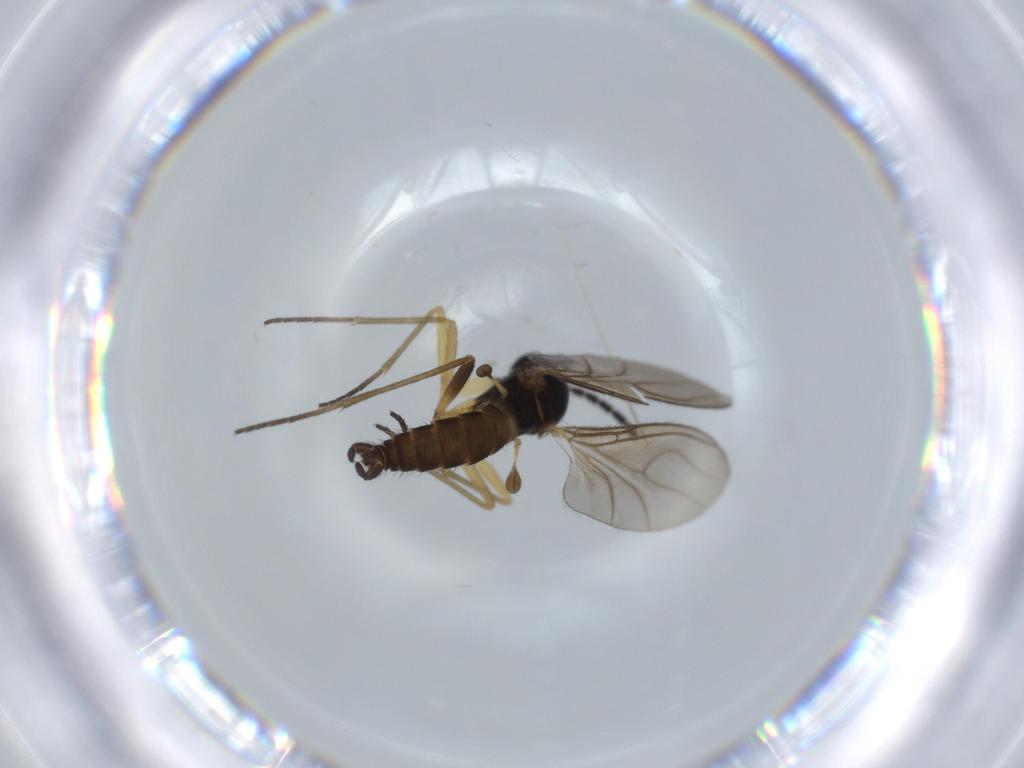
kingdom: Animalia
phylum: Arthropoda
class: Insecta
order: Diptera
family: Sciaridae
